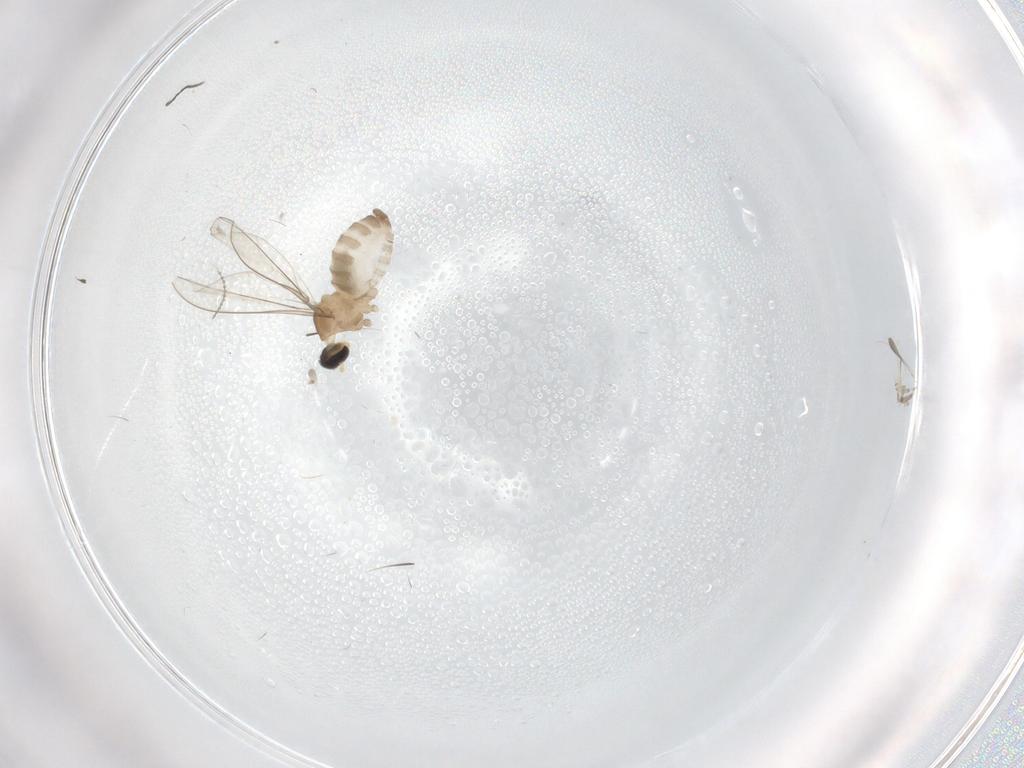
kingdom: Animalia
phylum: Arthropoda
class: Insecta
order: Diptera
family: Cecidomyiidae
